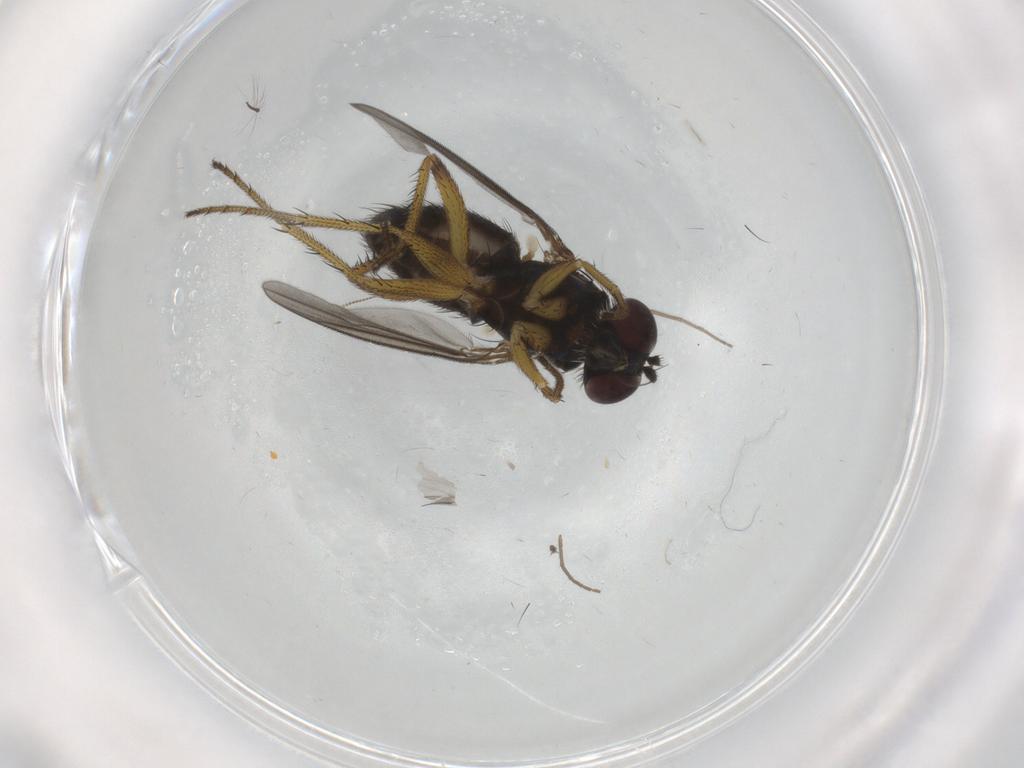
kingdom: Animalia
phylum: Arthropoda
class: Insecta
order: Diptera
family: Dolichopodidae
